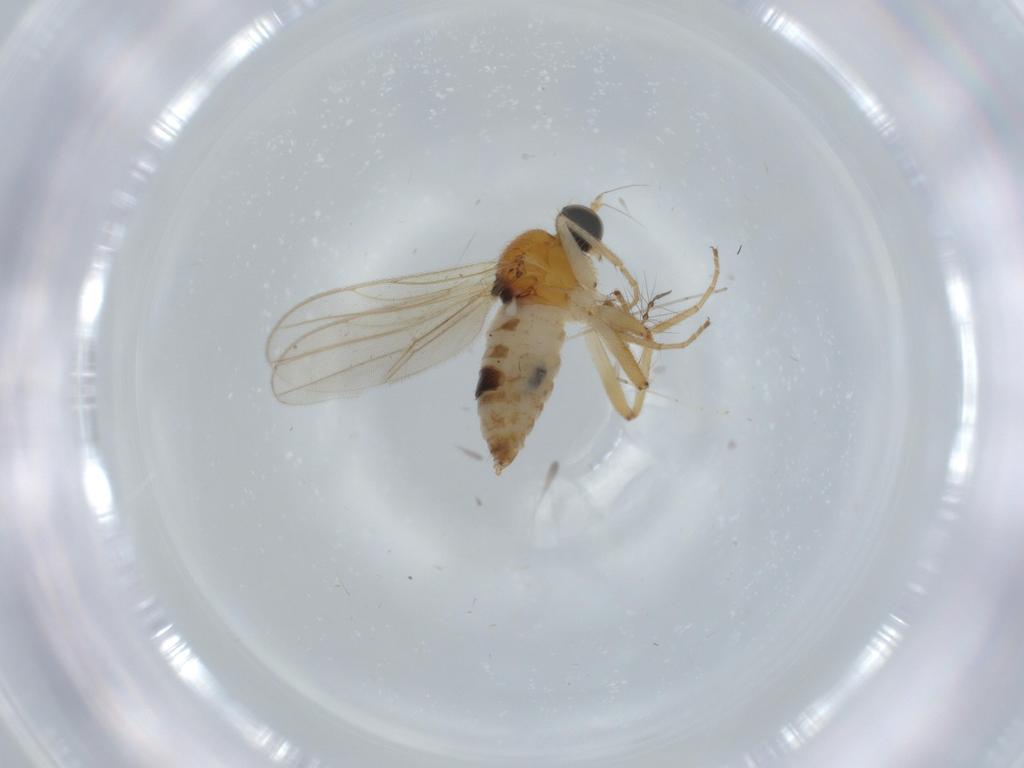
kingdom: Animalia
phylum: Arthropoda
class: Insecta
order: Diptera
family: Hybotidae
